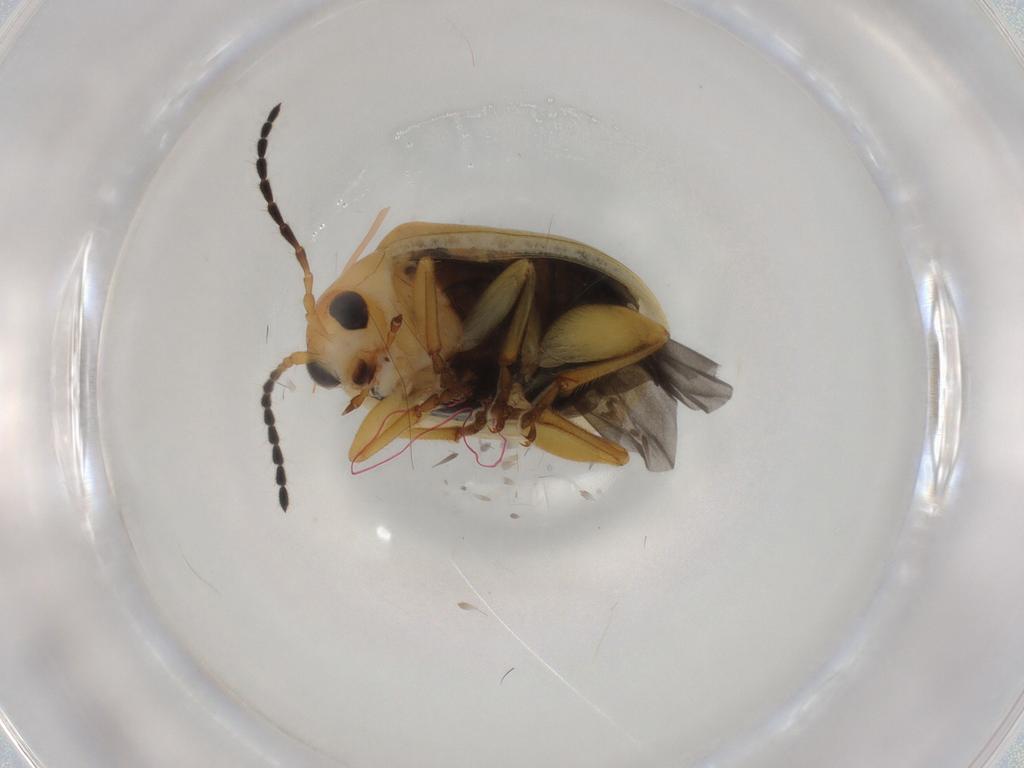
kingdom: Animalia
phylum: Arthropoda
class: Insecta
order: Coleoptera
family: Chrysomelidae
